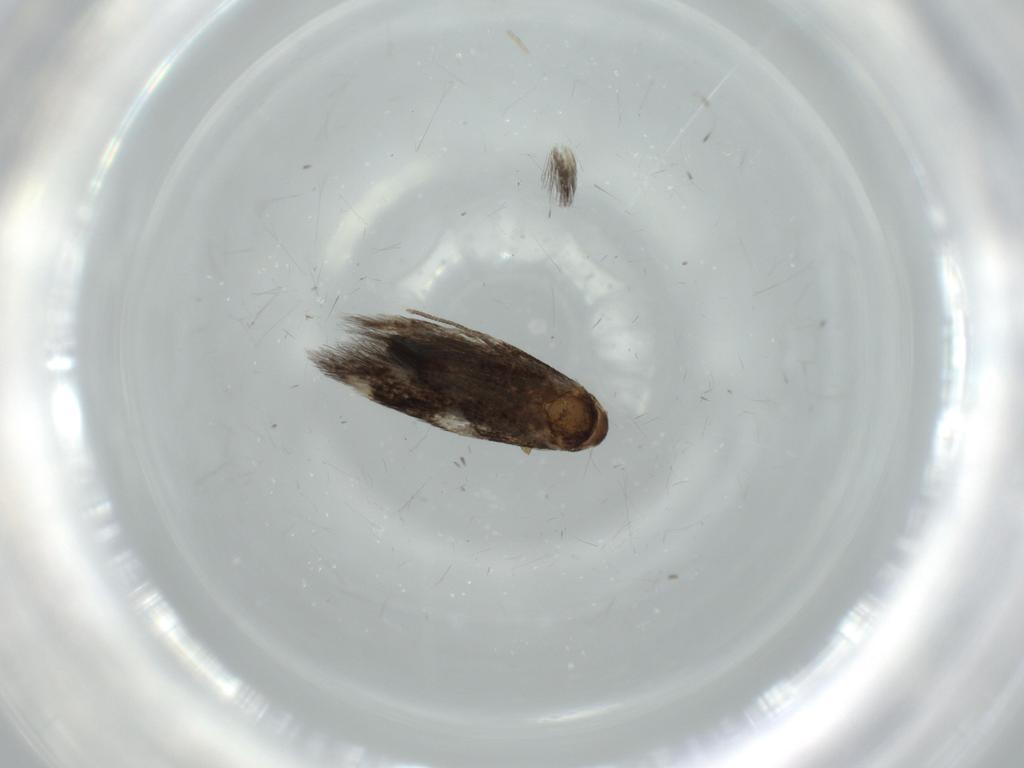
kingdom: Animalia
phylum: Arthropoda
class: Insecta
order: Lepidoptera
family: Cosmopterigidae
